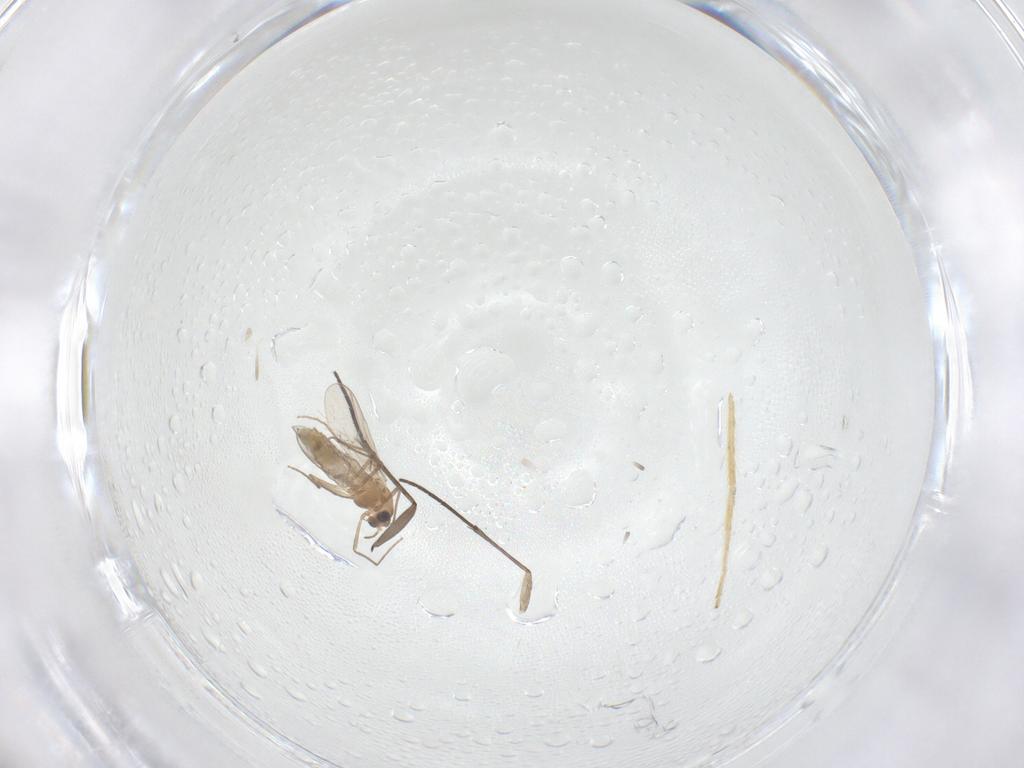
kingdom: Animalia
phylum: Arthropoda
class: Insecta
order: Diptera
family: Chironomidae
